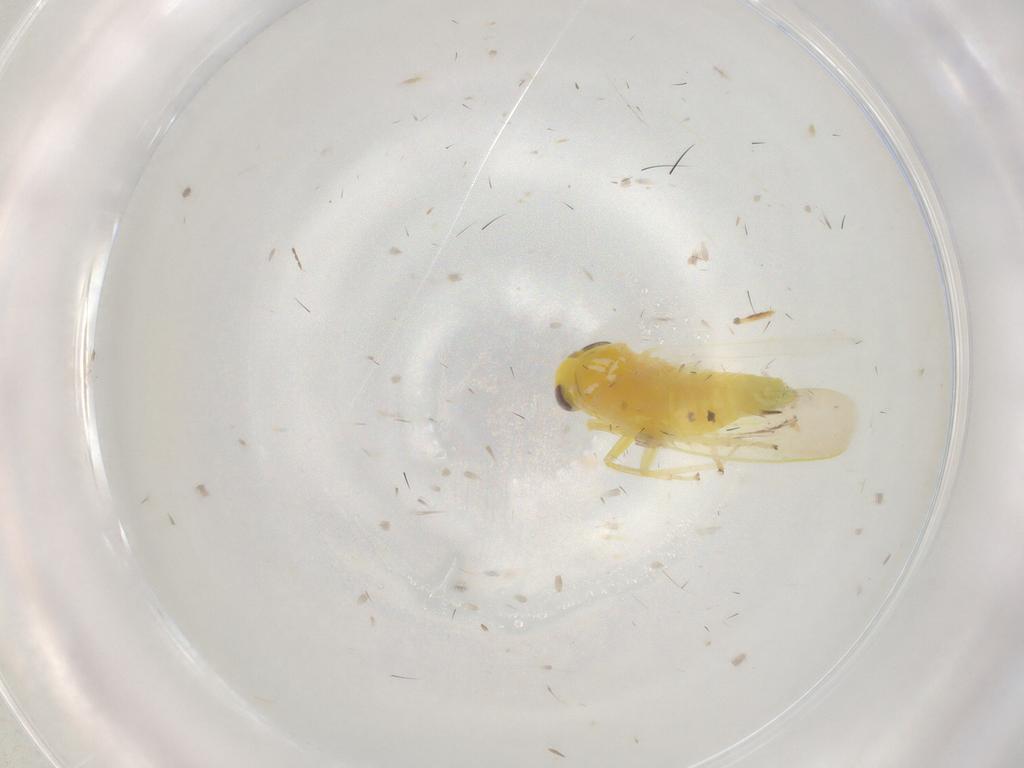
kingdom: Animalia
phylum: Arthropoda
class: Insecta
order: Hemiptera
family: Cicadellidae
